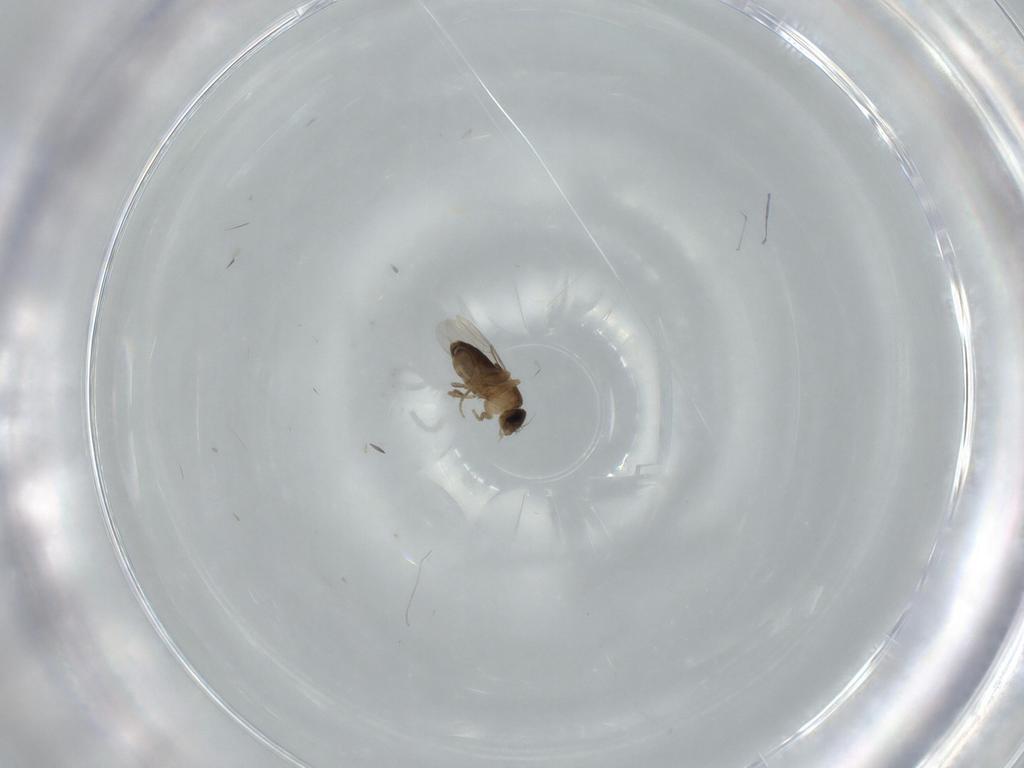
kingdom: Animalia
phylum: Arthropoda
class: Insecta
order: Diptera
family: Phoridae
